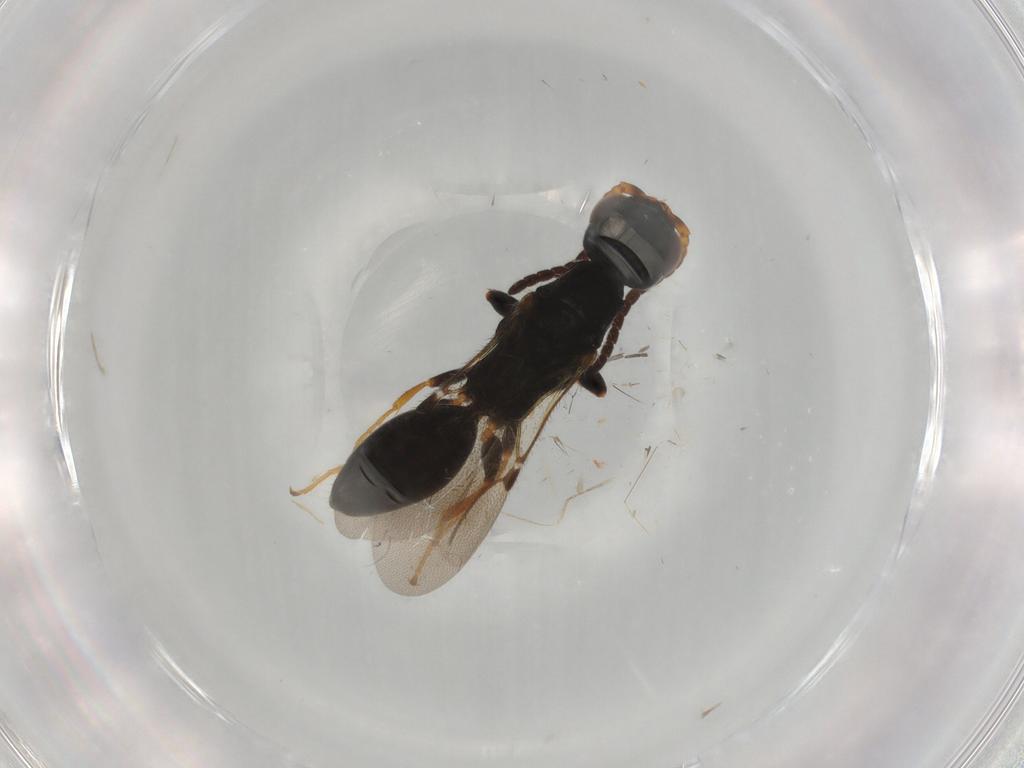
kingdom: Animalia
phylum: Arthropoda
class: Insecta
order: Hymenoptera
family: Bethylidae
